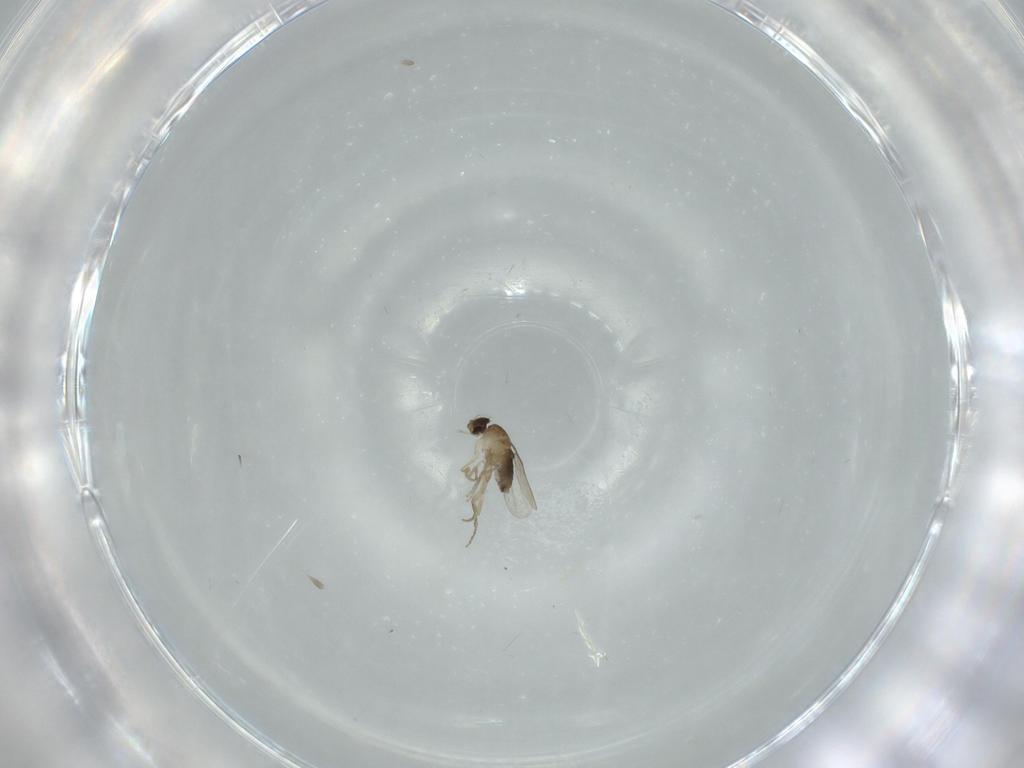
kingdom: Animalia
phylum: Arthropoda
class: Insecta
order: Diptera
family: Phoridae
